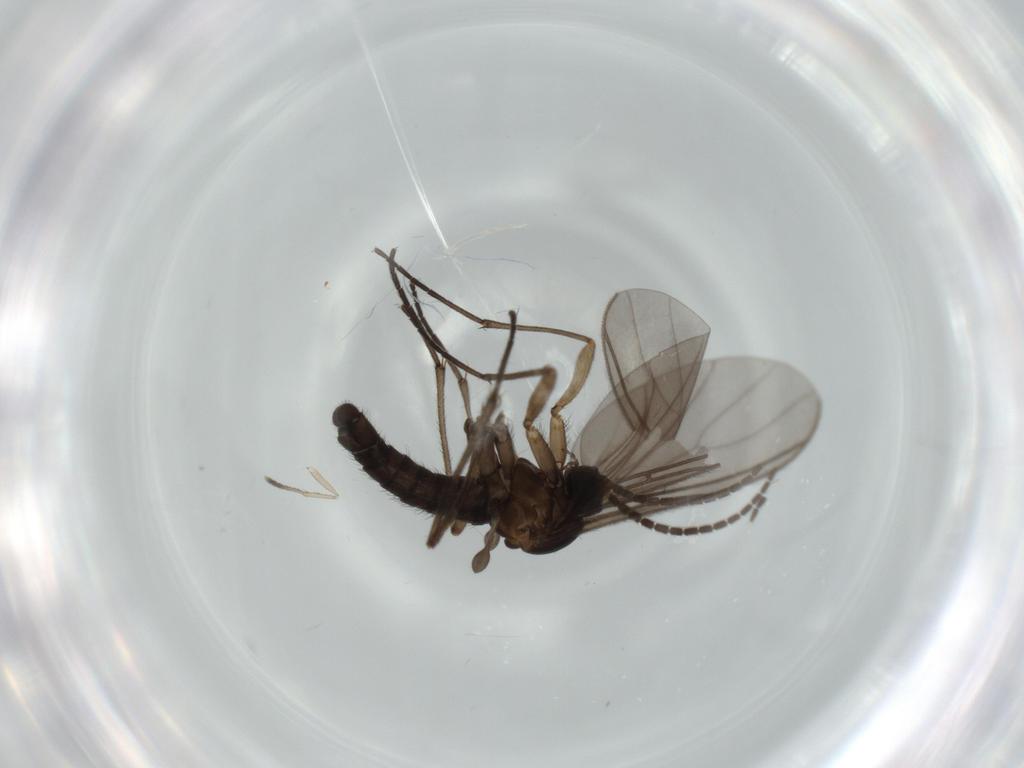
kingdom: Animalia
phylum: Arthropoda
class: Insecta
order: Diptera
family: Sciaridae
